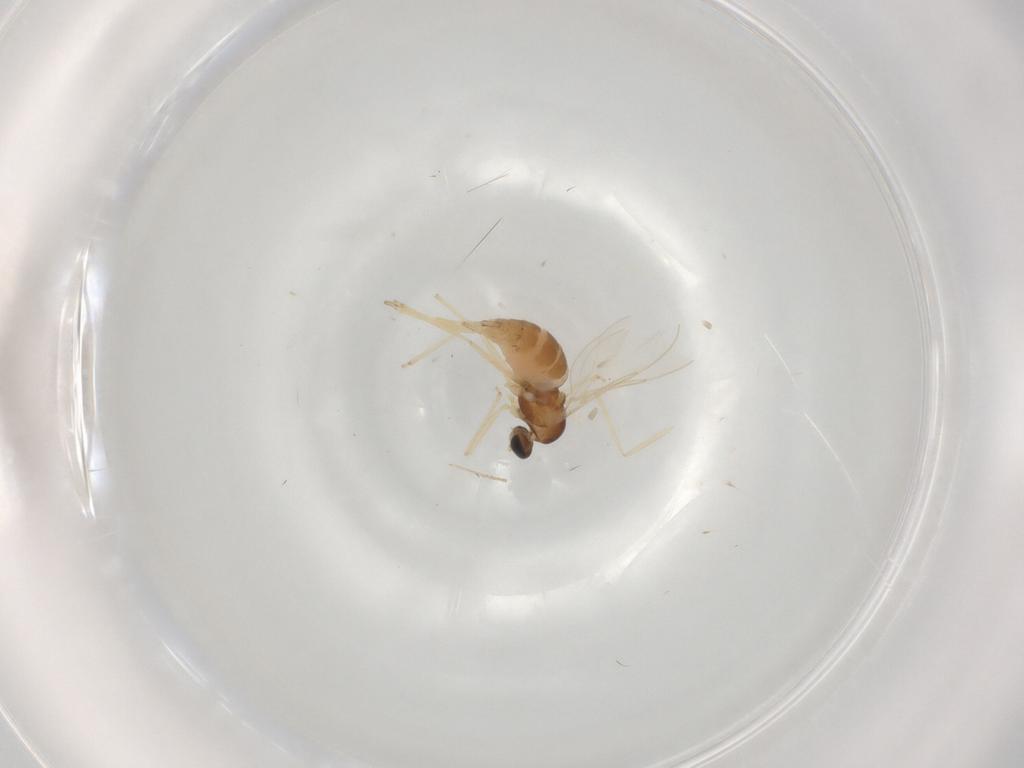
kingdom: Animalia
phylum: Arthropoda
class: Insecta
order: Diptera
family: Cecidomyiidae
